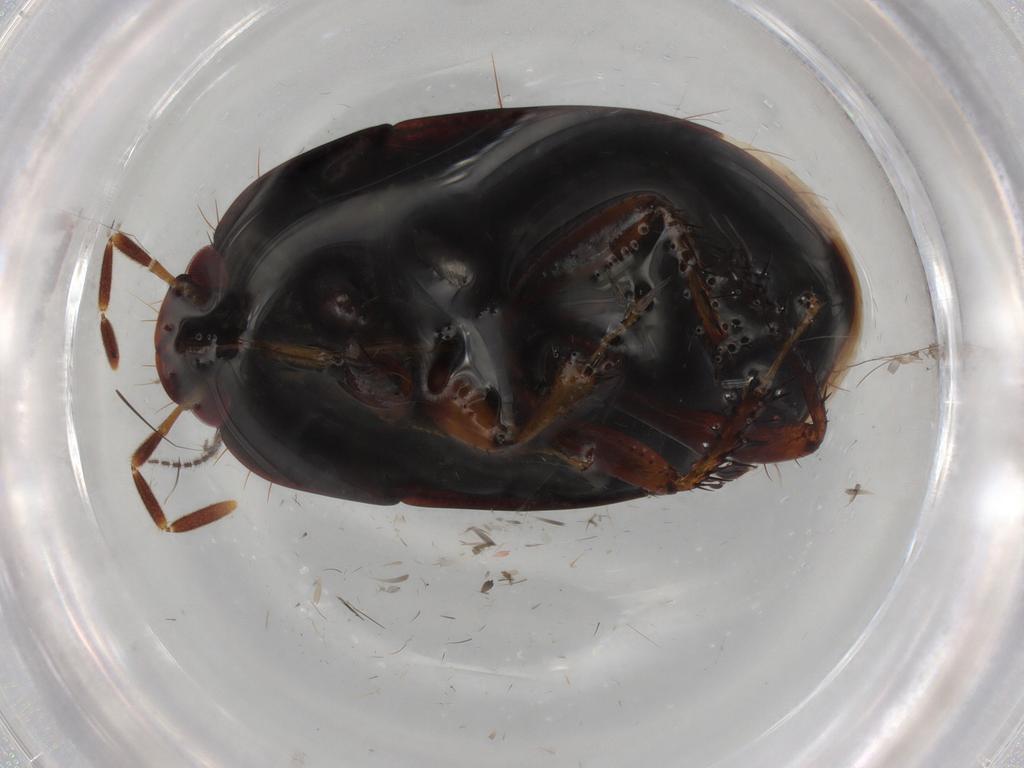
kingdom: Animalia
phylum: Arthropoda
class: Insecta
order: Hemiptera
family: Cydnidae
